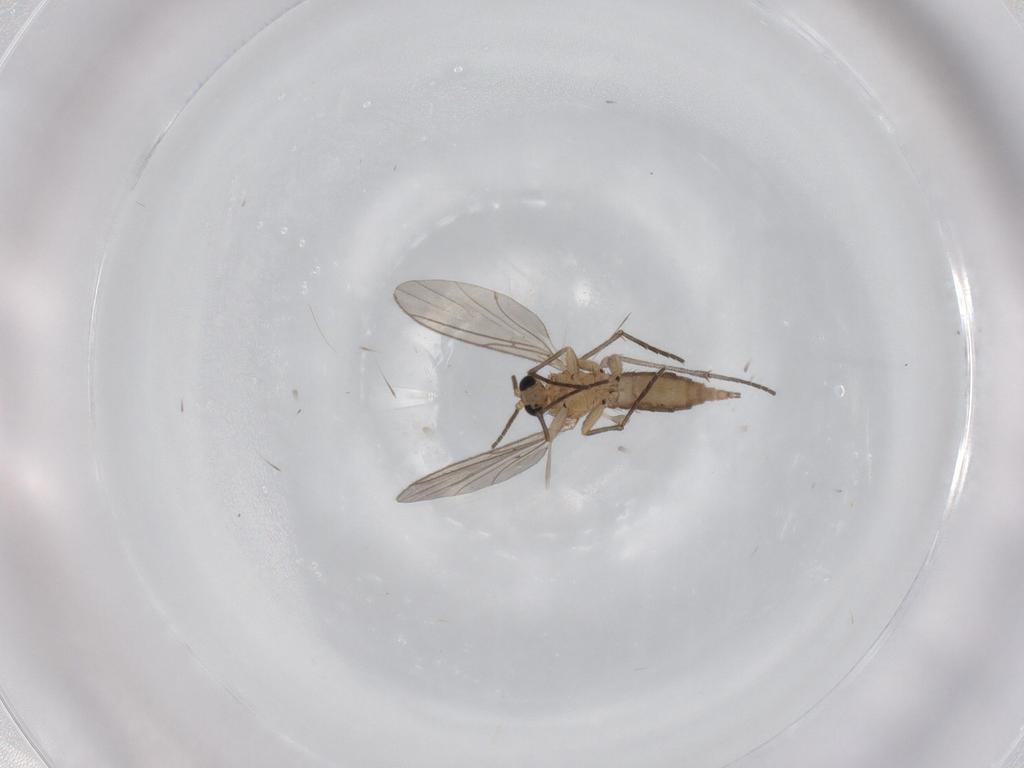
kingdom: Animalia
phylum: Arthropoda
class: Insecta
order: Diptera
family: Sciaridae
